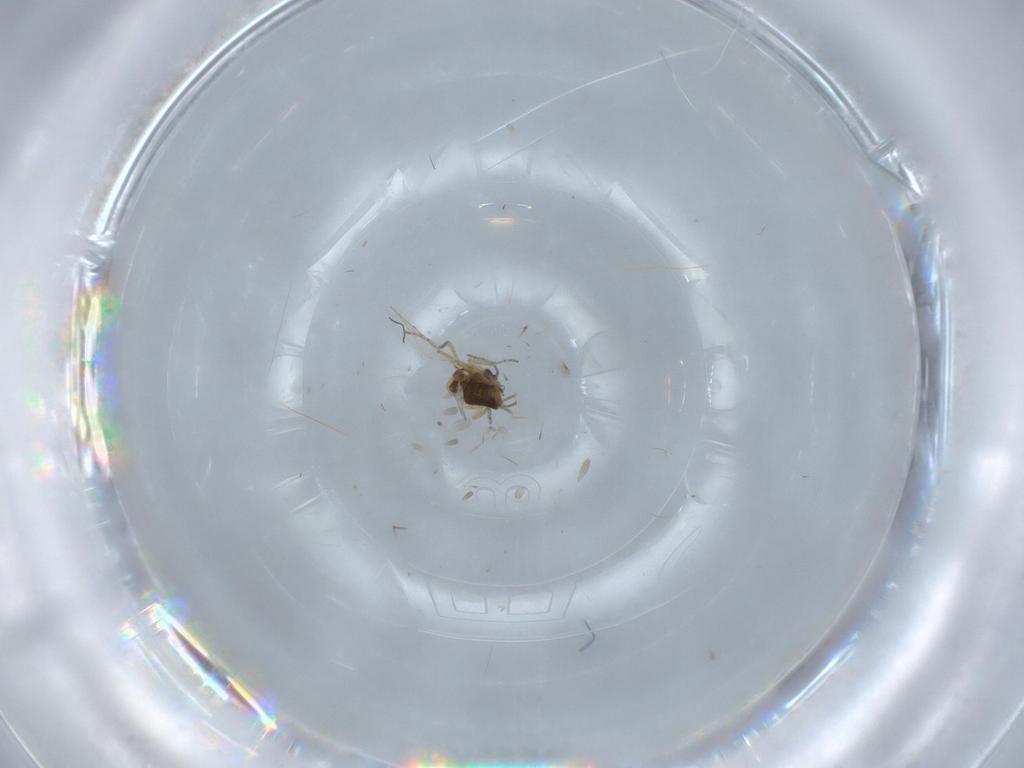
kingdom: Animalia
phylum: Arthropoda
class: Insecta
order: Diptera
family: Ceratopogonidae
